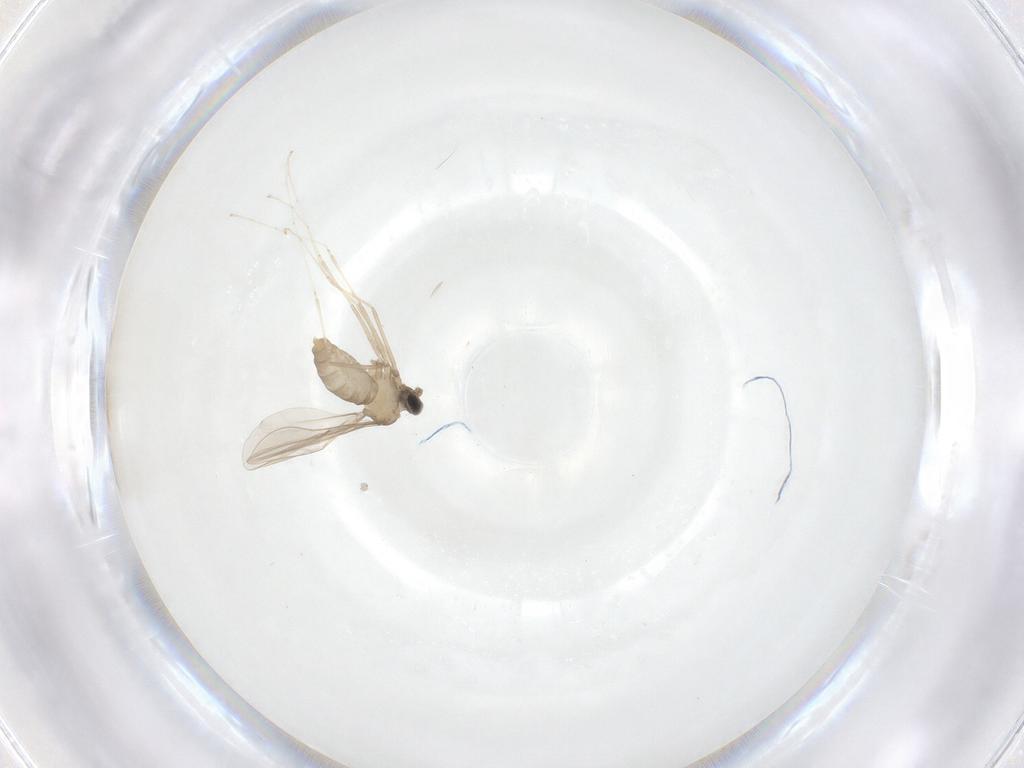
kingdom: Animalia
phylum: Arthropoda
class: Insecta
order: Diptera
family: Cecidomyiidae
